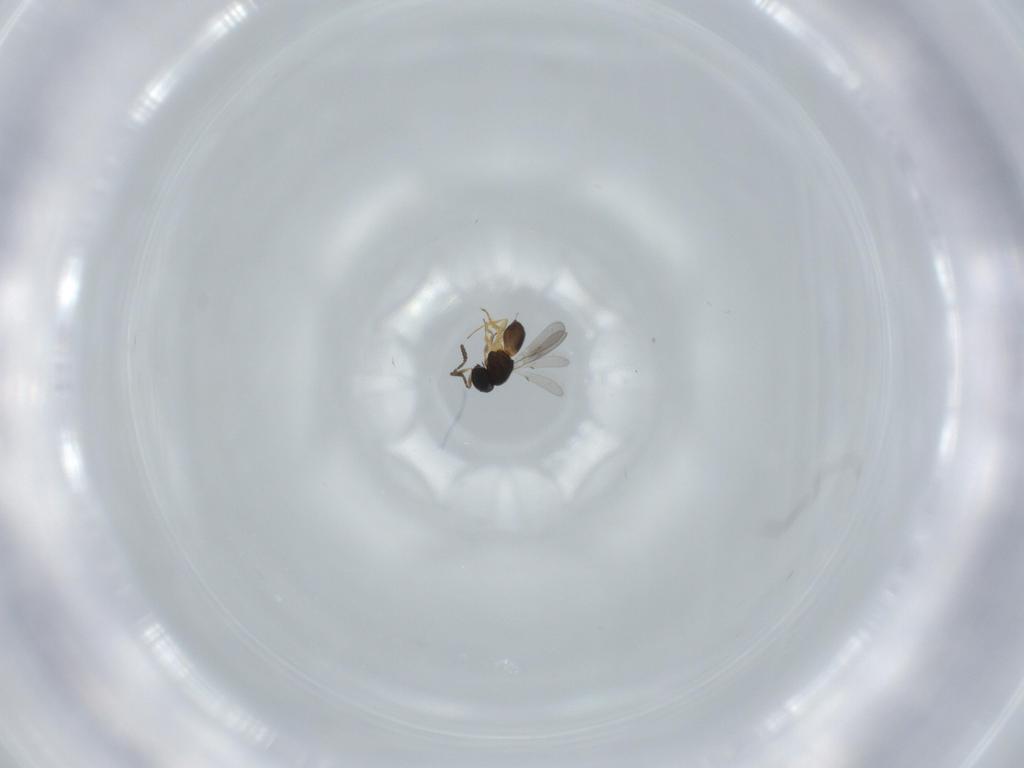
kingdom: Animalia
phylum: Arthropoda
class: Insecta
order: Hymenoptera
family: Scelionidae
